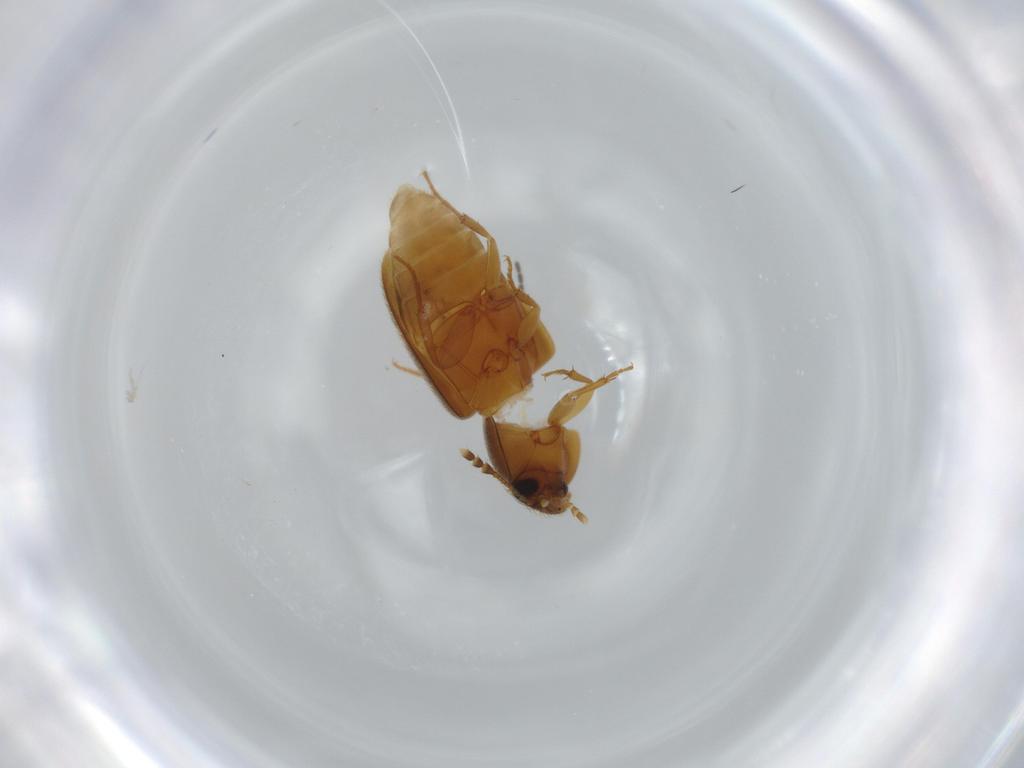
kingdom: Animalia
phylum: Arthropoda
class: Insecta
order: Coleoptera
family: Mycetophagidae
